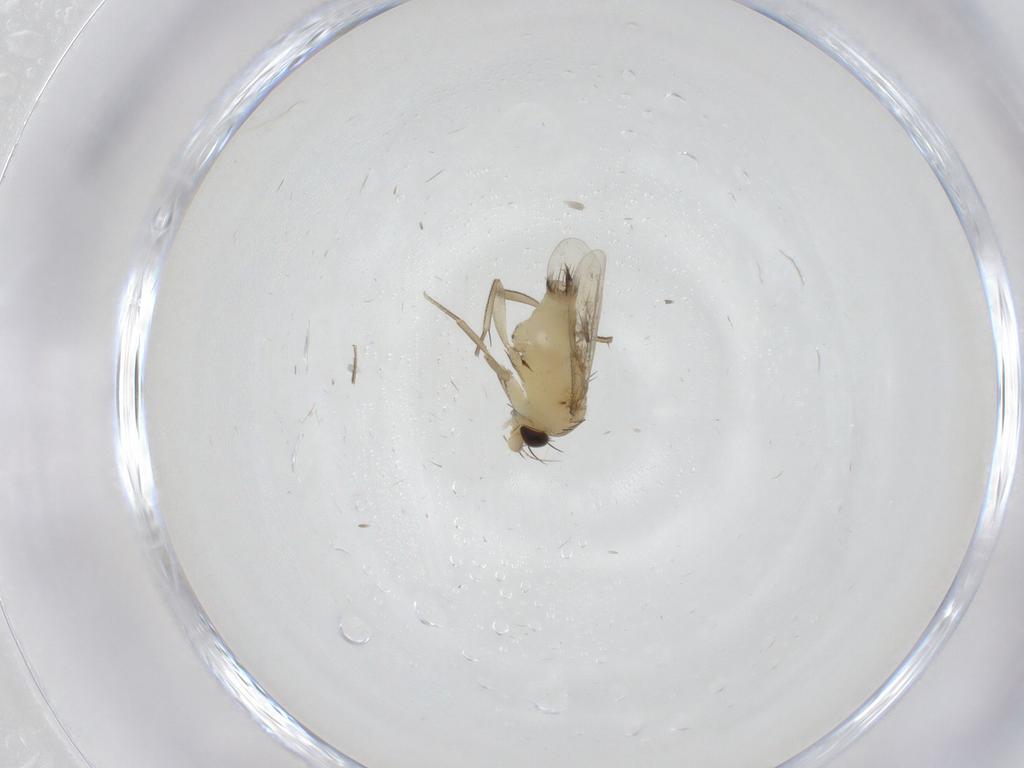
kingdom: Animalia
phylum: Arthropoda
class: Insecta
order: Diptera
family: Phoridae
